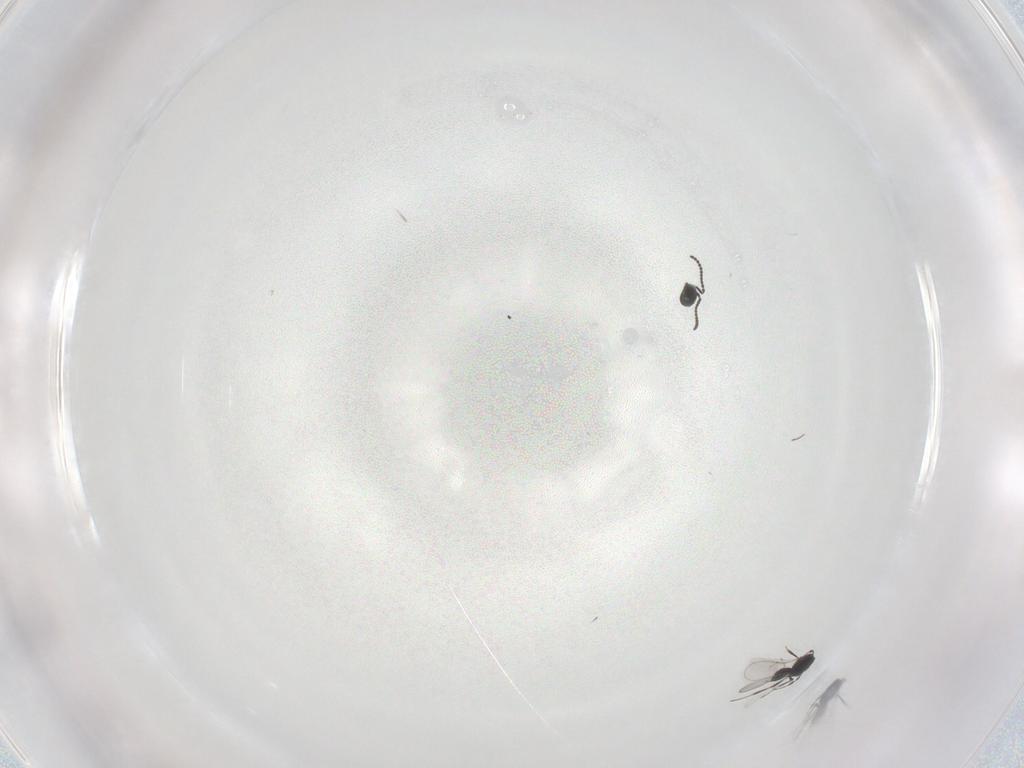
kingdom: Animalia
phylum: Arthropoda
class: Insecta
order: Hymenoptera
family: Scelionidae
